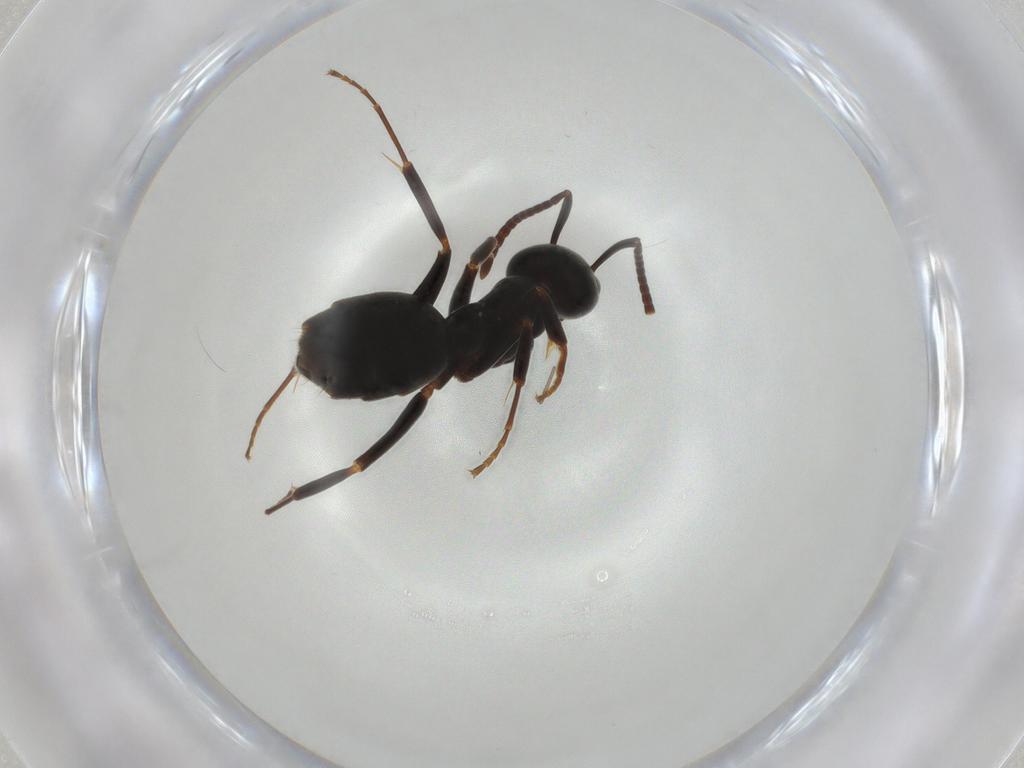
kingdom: Animalia
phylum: Arthropoda
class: Insecta
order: Hymenoptera
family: Formicidae
